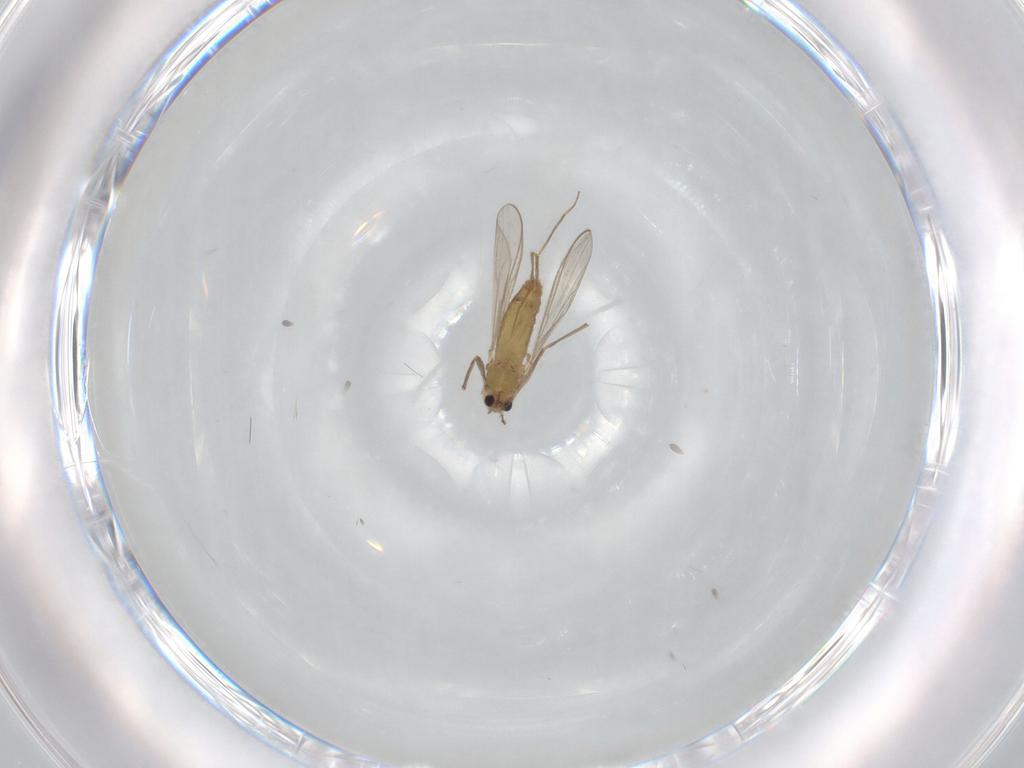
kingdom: Animalia
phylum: Arthropoda
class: Insecta
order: Diptera
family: Chironomidae
